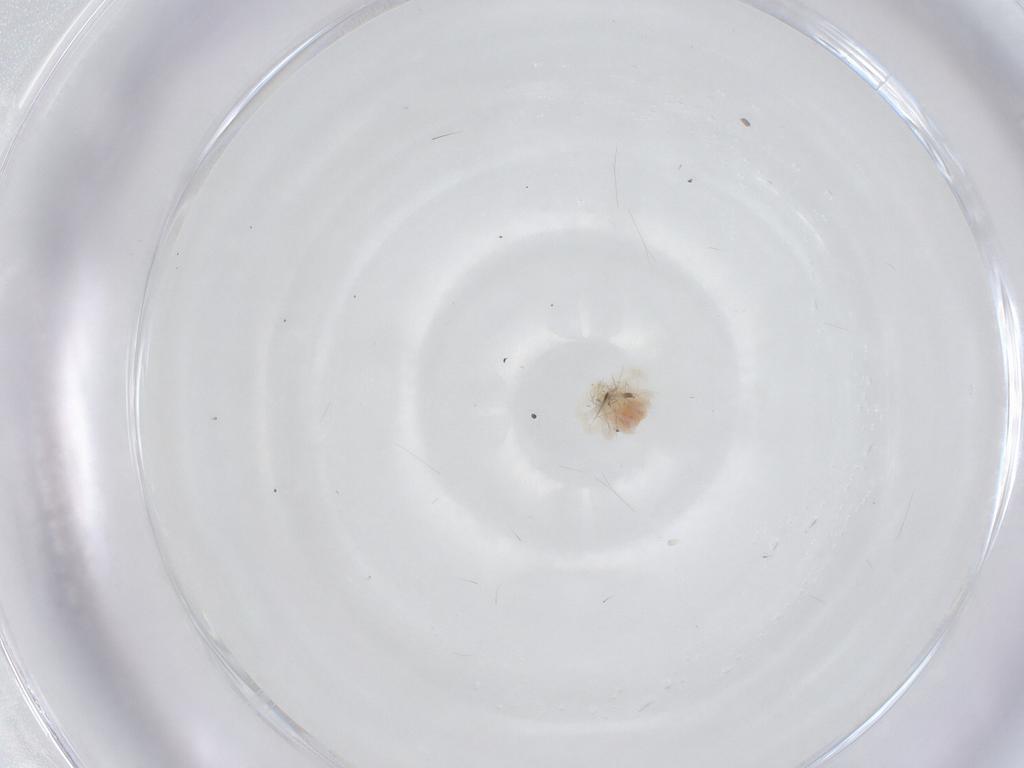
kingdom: Animalia
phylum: Arthropoda
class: Arachnida
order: Trombidiformes
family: Anystidae
